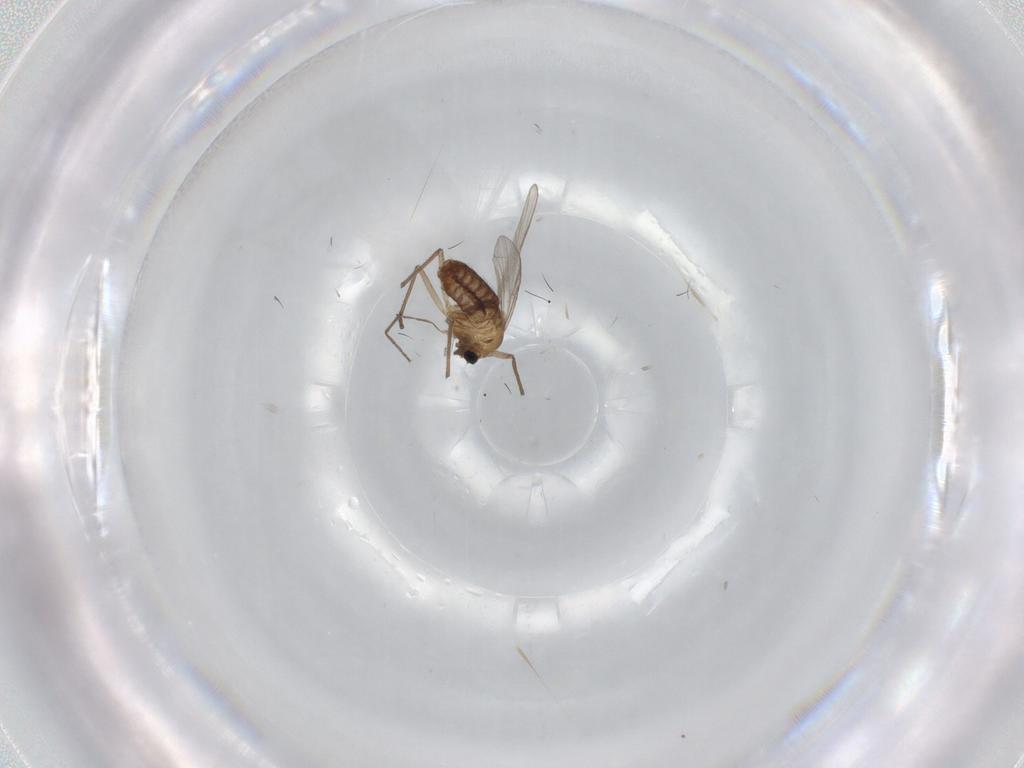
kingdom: Animalia
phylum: Arthropoda
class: Insecta
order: Diptera
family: Chironomidae
